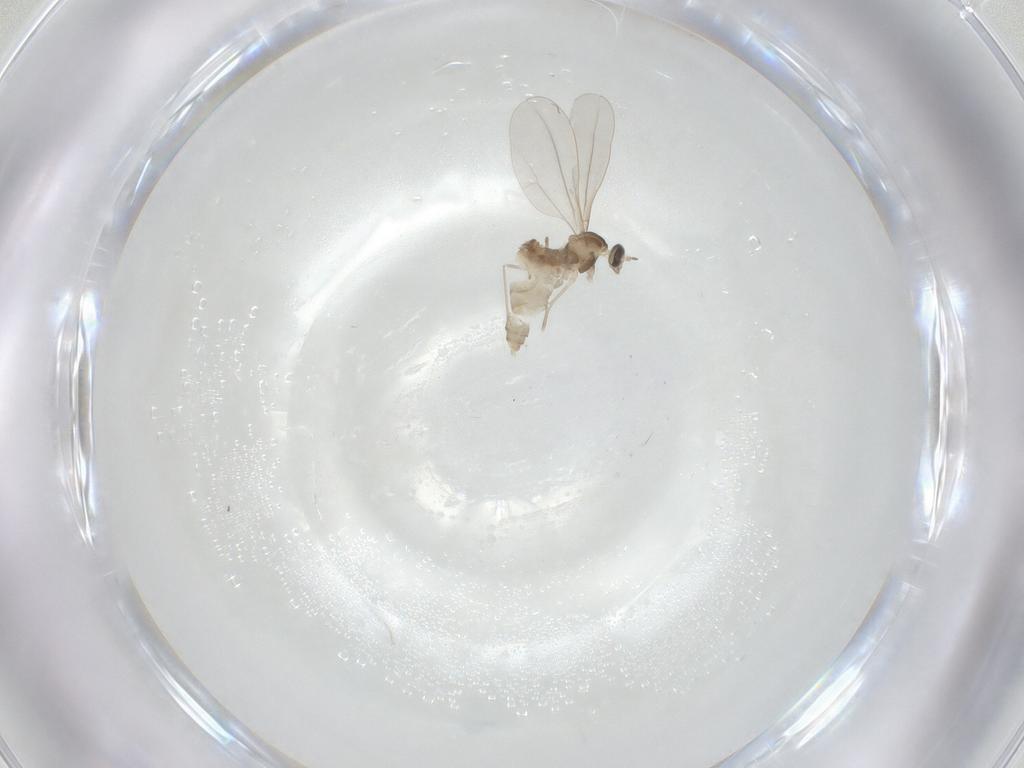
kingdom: Animalia
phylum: Arthropoda
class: Insecta
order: Diptera
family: Cecidomyiidae
